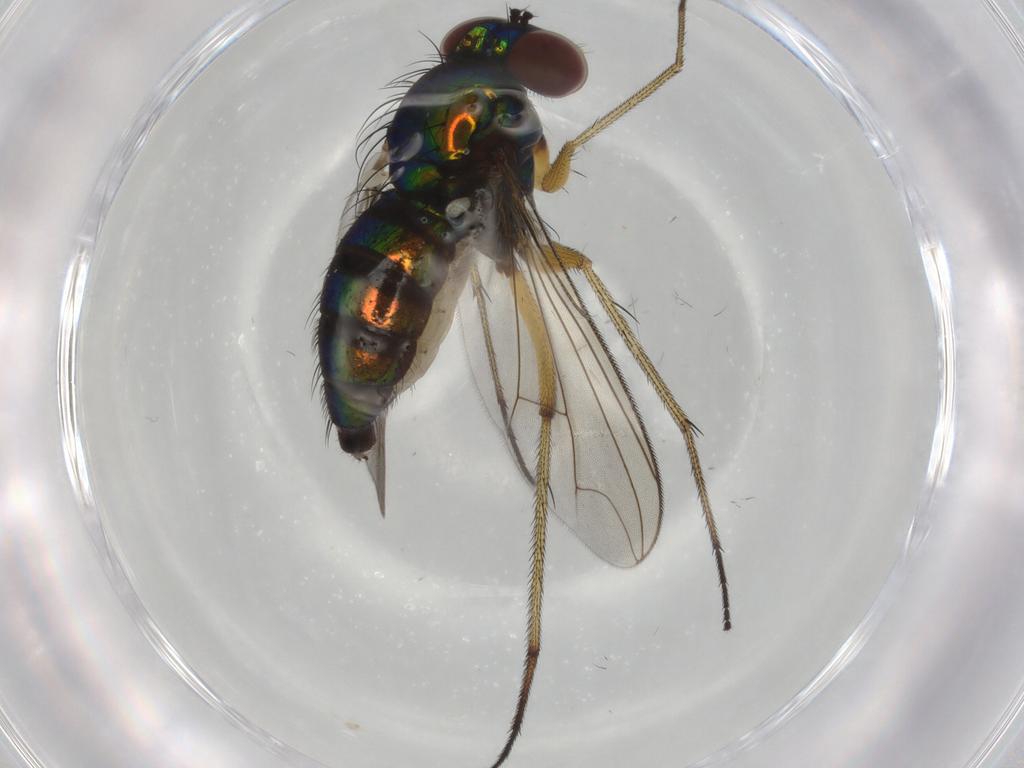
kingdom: Animalia
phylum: Arthropoda
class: Insecta
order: Diptera
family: Dolichopodidae
